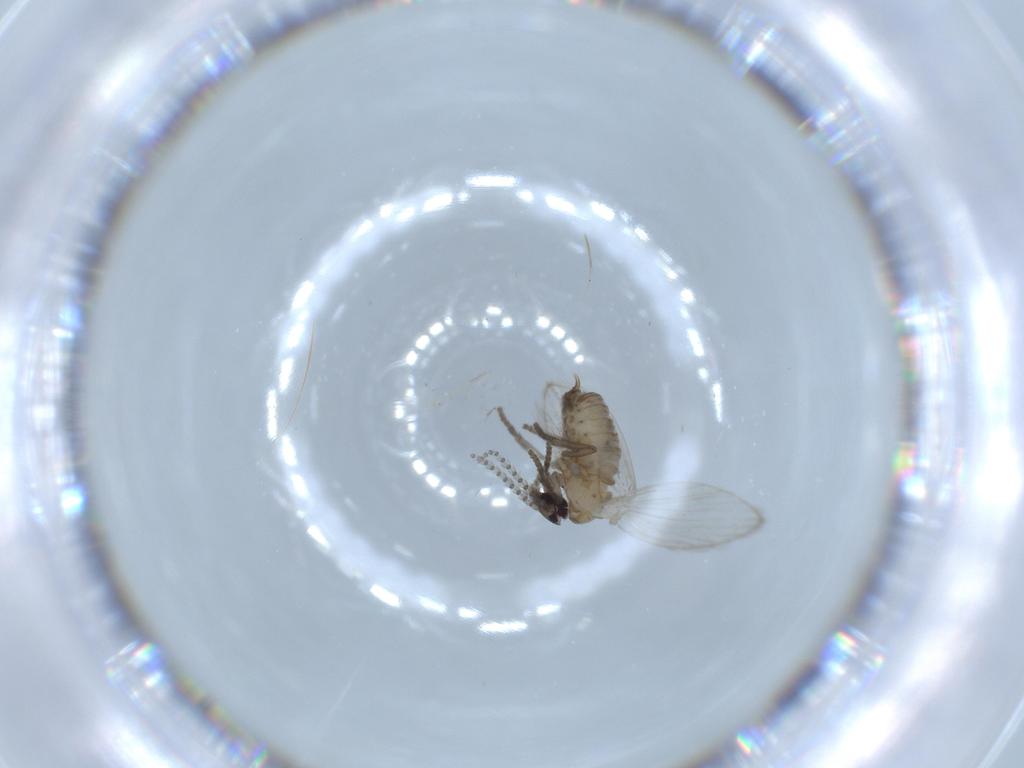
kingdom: Animalia
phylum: Arthropoda
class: Insecta
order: Diptera
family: Psychodidae
